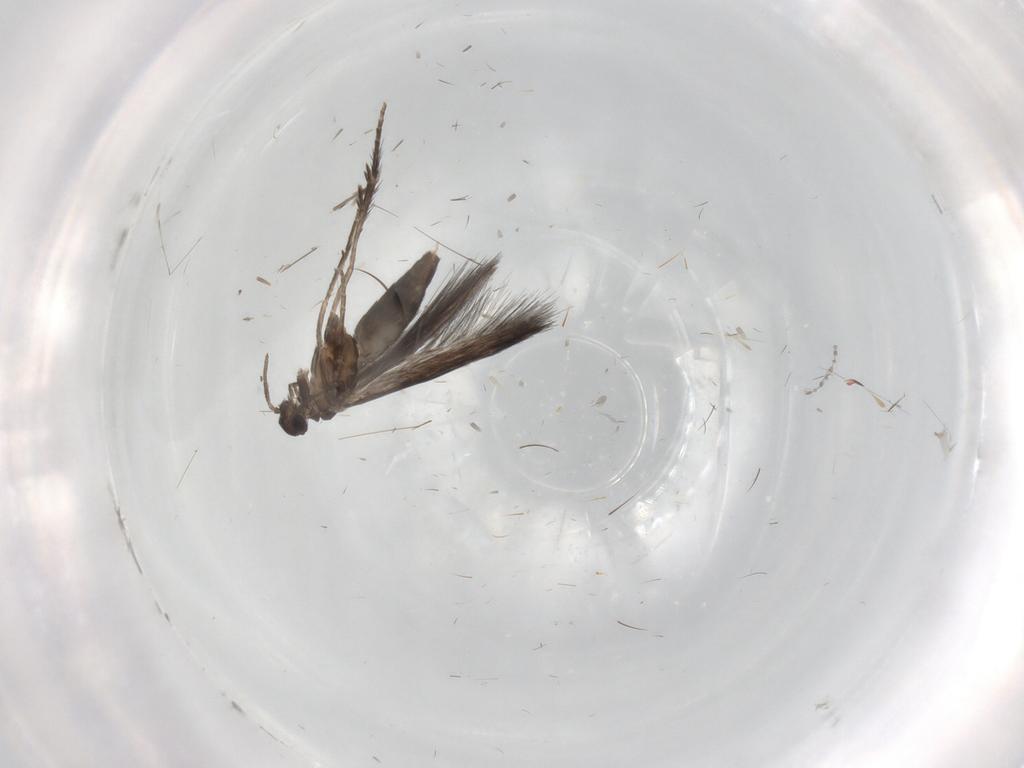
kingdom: Animalia
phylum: Arthropoda
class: Insecta
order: Trichoptera
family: Hydroptilidae
